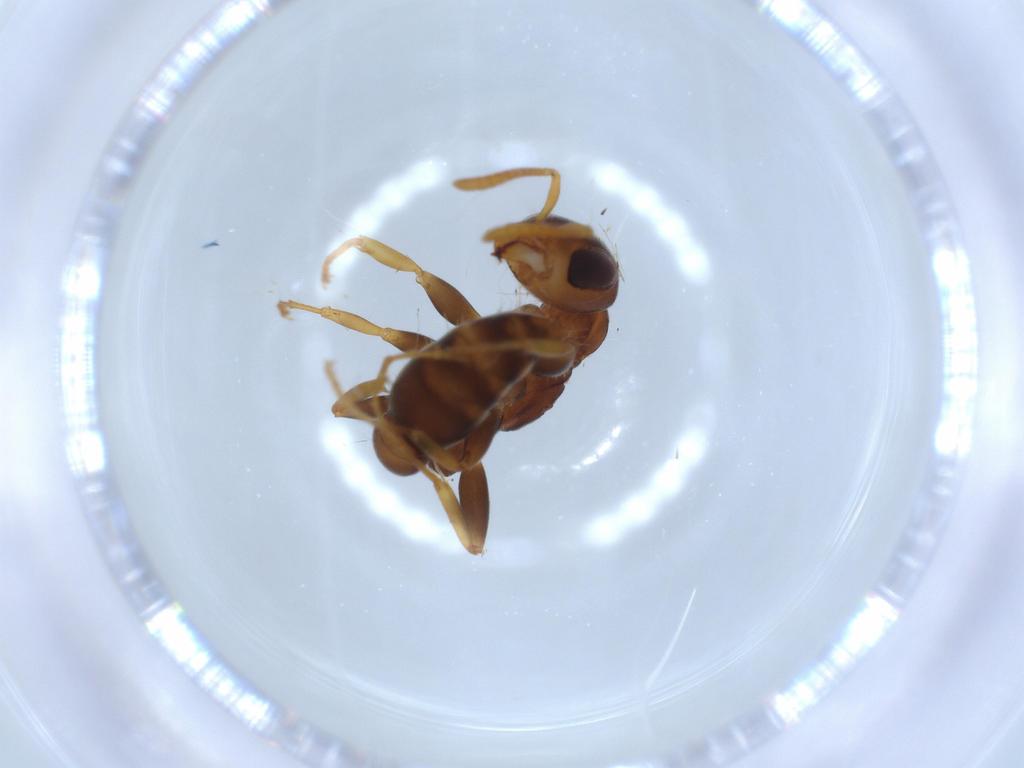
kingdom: Animalia
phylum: Arthropoda
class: Insecta
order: Hymenoptera
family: Formicidae
